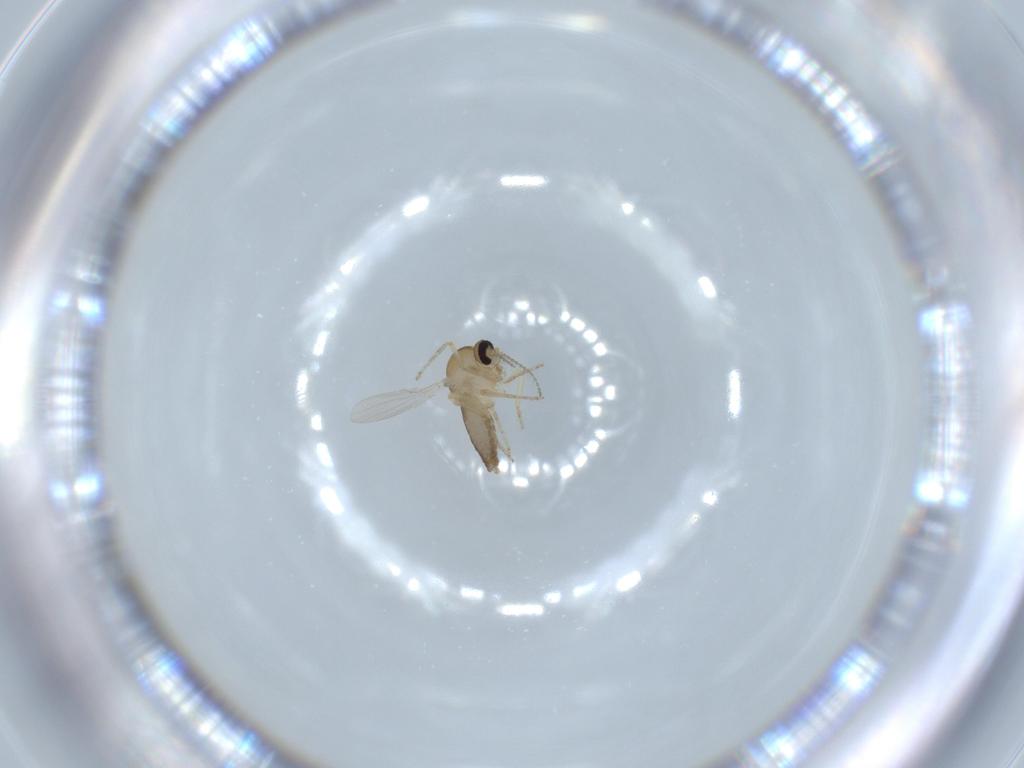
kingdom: Animalia
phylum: Arthropoda
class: Insecta
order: Diptera
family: Ceratopogonidae
